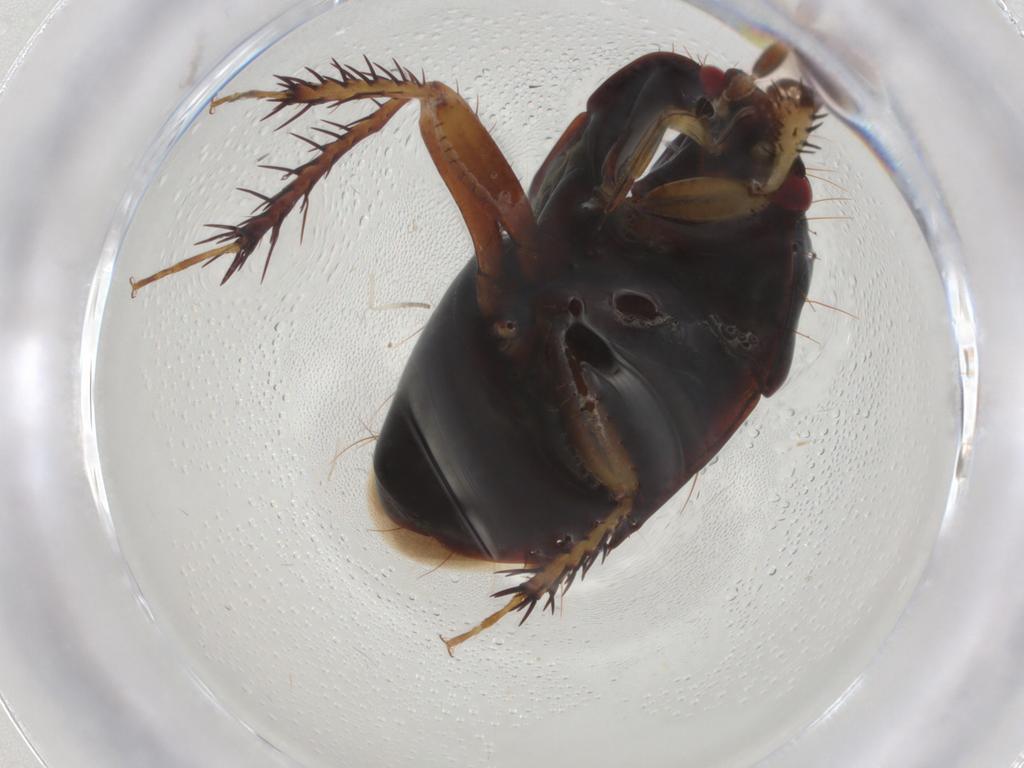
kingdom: Animalia
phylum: Arthropoda
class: Insecta
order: Hemiptera
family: Cydnidae
